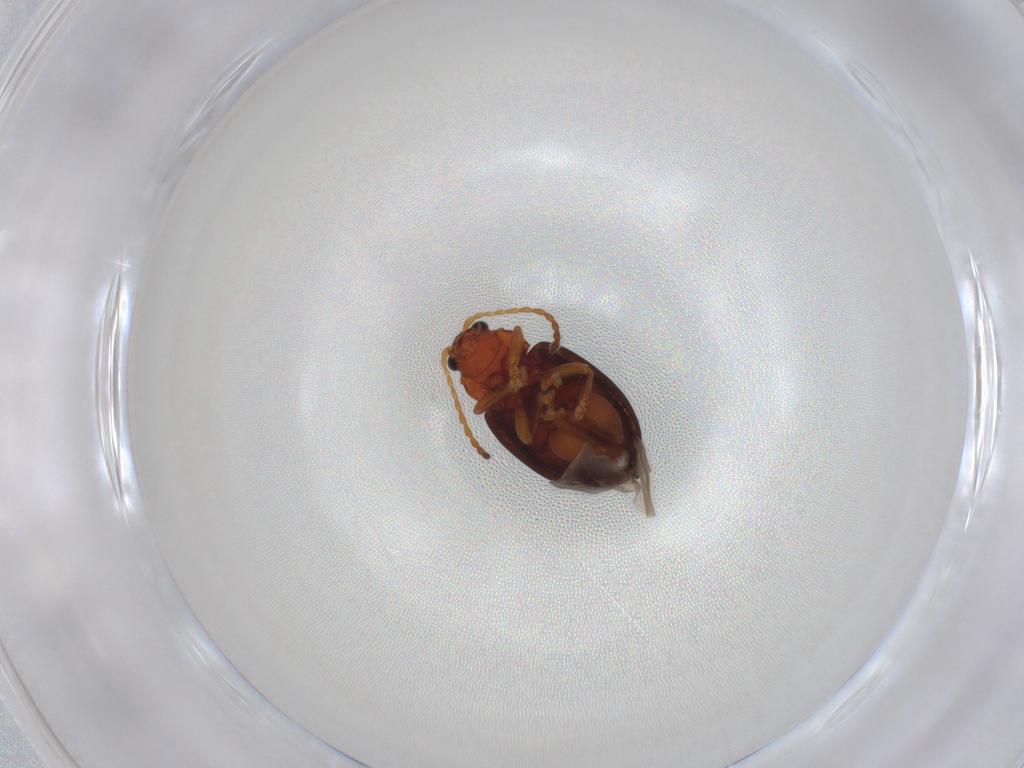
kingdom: Animalia
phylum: Arthropoda
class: Insecta
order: Coleoptera
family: Chrysomelidae
